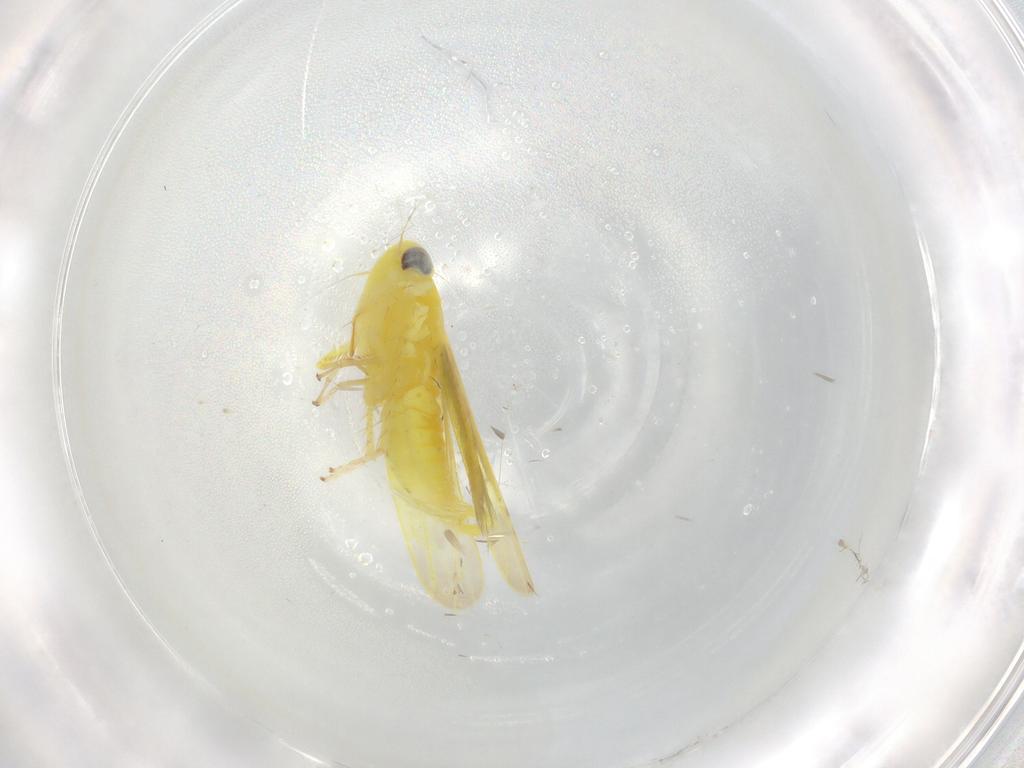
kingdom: Animalia
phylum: Arthropoda
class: Insecta
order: Hemiptera
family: Cicadellidae
